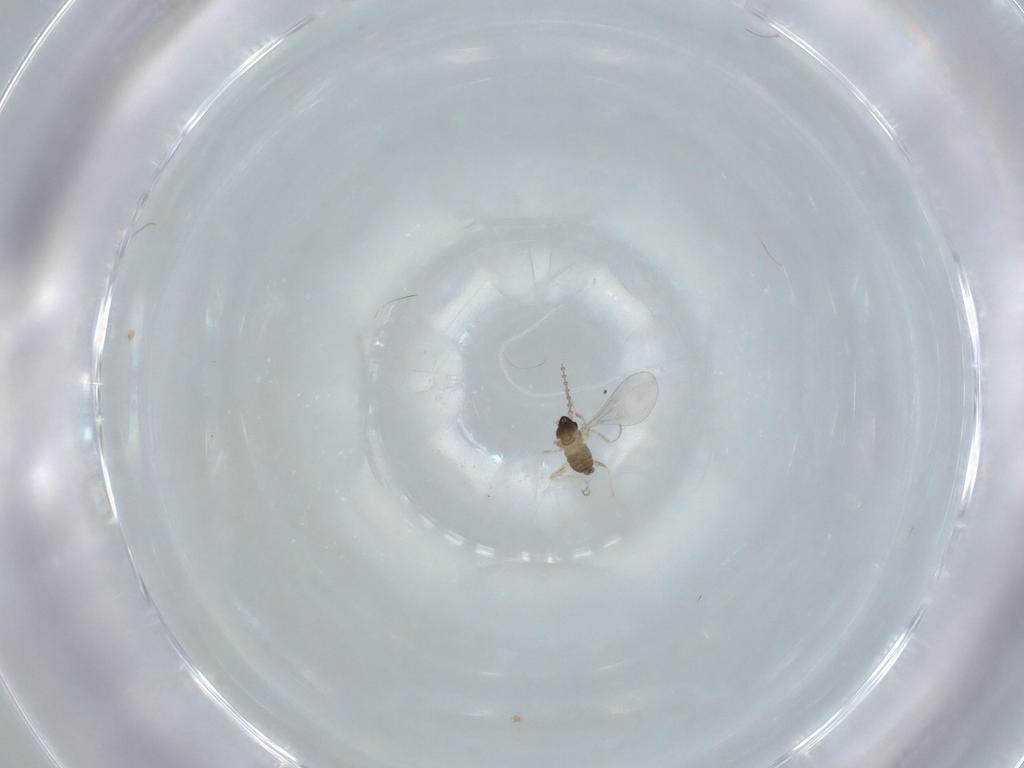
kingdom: Animalia
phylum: Arthropoda
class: Insecta
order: Diptera
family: Cecidomyiidae
